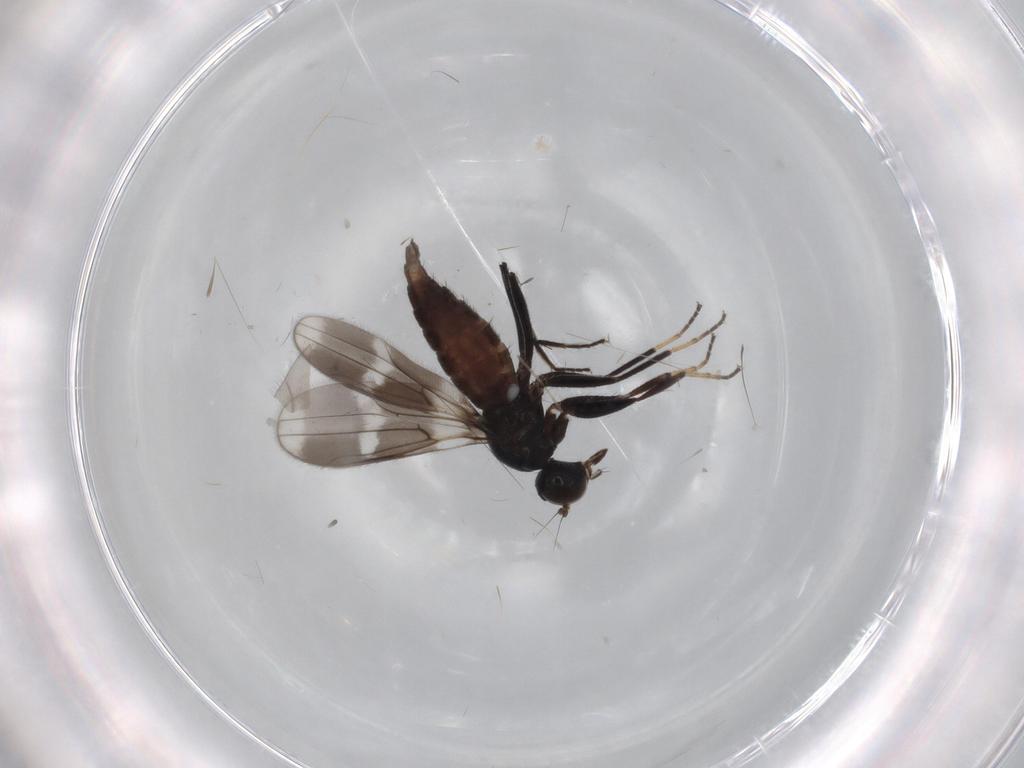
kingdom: Animalia
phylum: Arthropoda
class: Insecta
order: Diptera
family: Hybotidae
